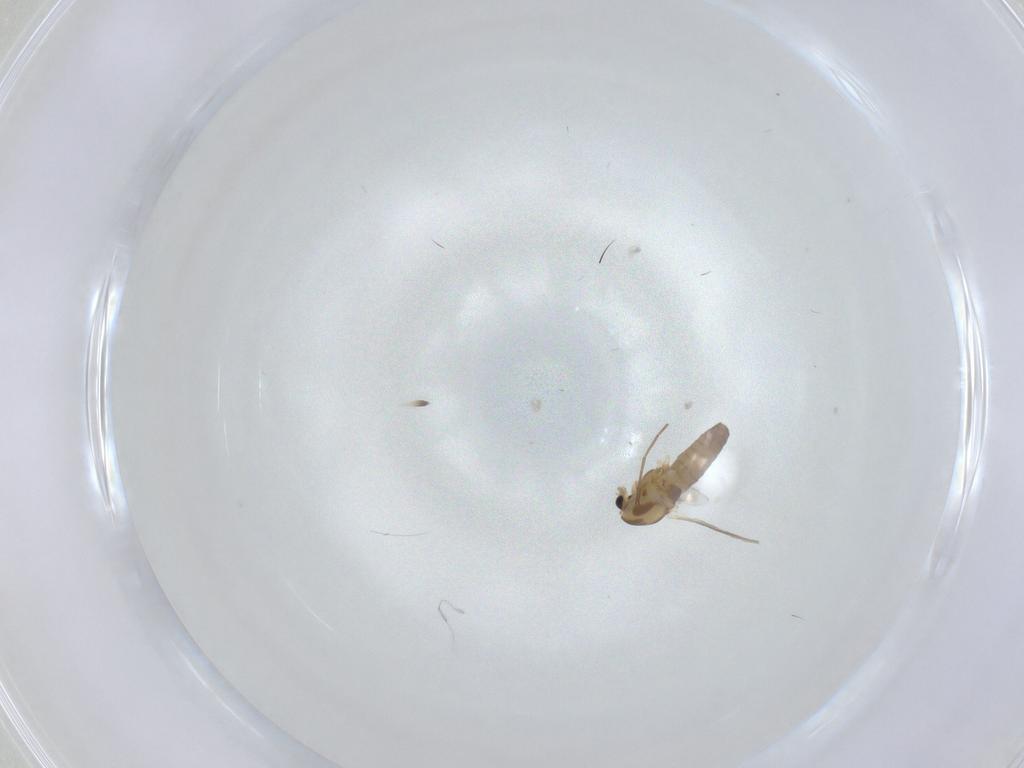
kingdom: Animalia
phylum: Arthropoda
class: Insecta
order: Diptera
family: Chironomidae
